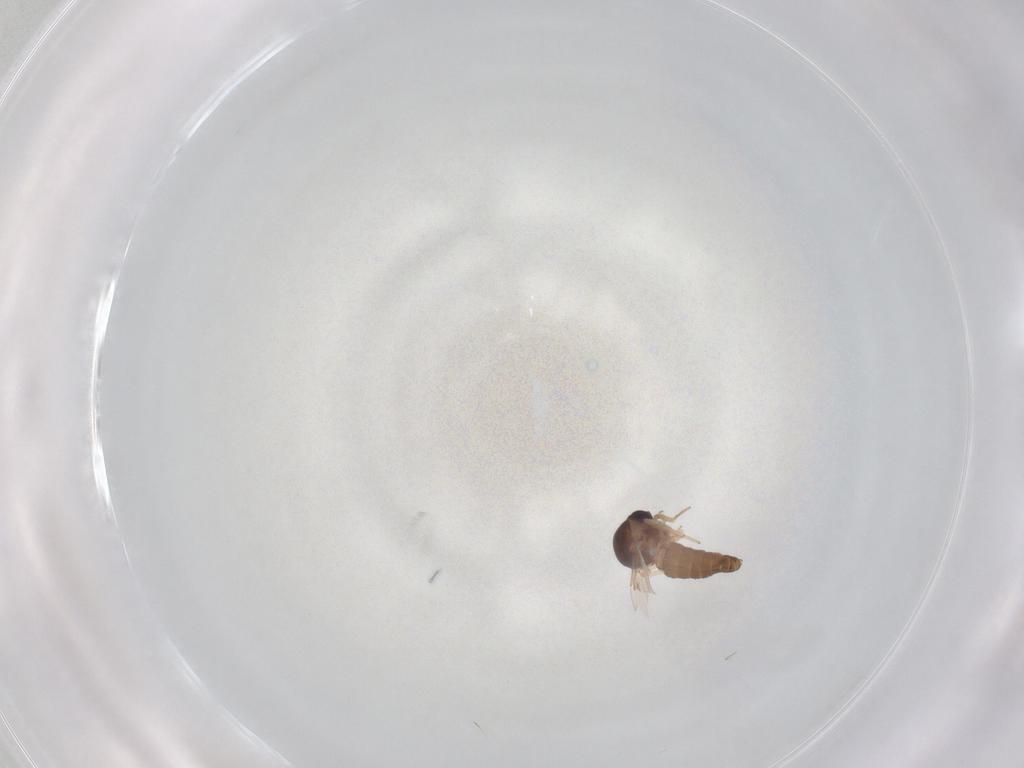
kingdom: Animalia
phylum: Arthropoda
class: Insecta
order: Diptera
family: Ceratopogonidae
